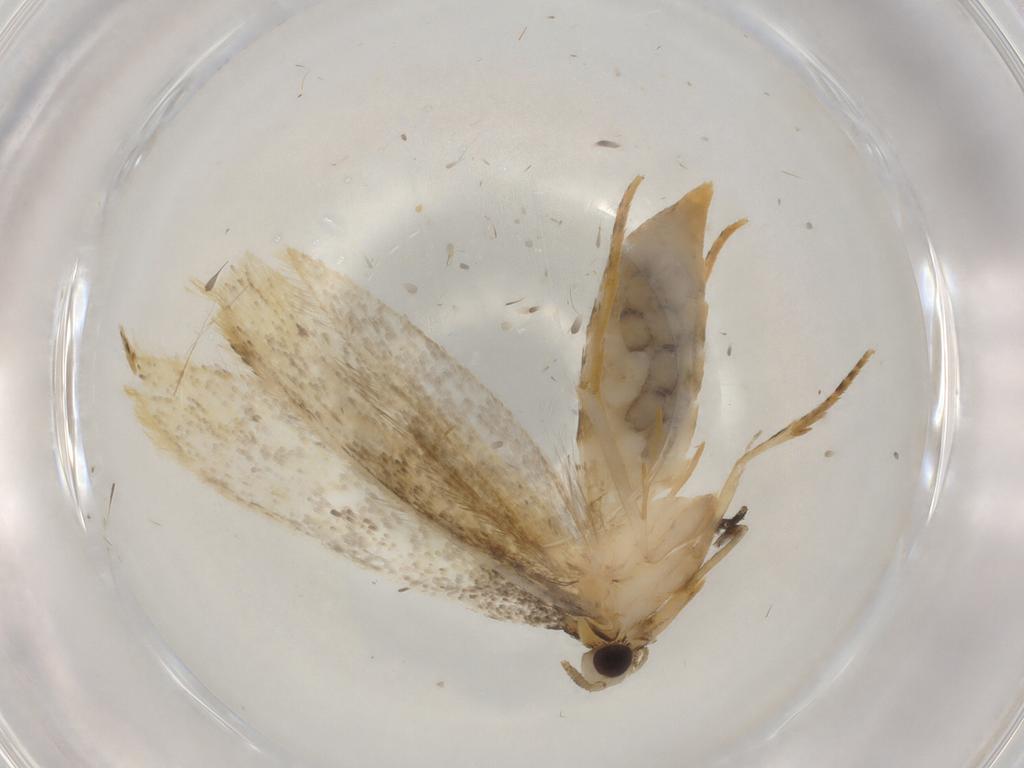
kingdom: Animalia
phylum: Arthropoda
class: Insecta
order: Lepidoptera
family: Tineidae
